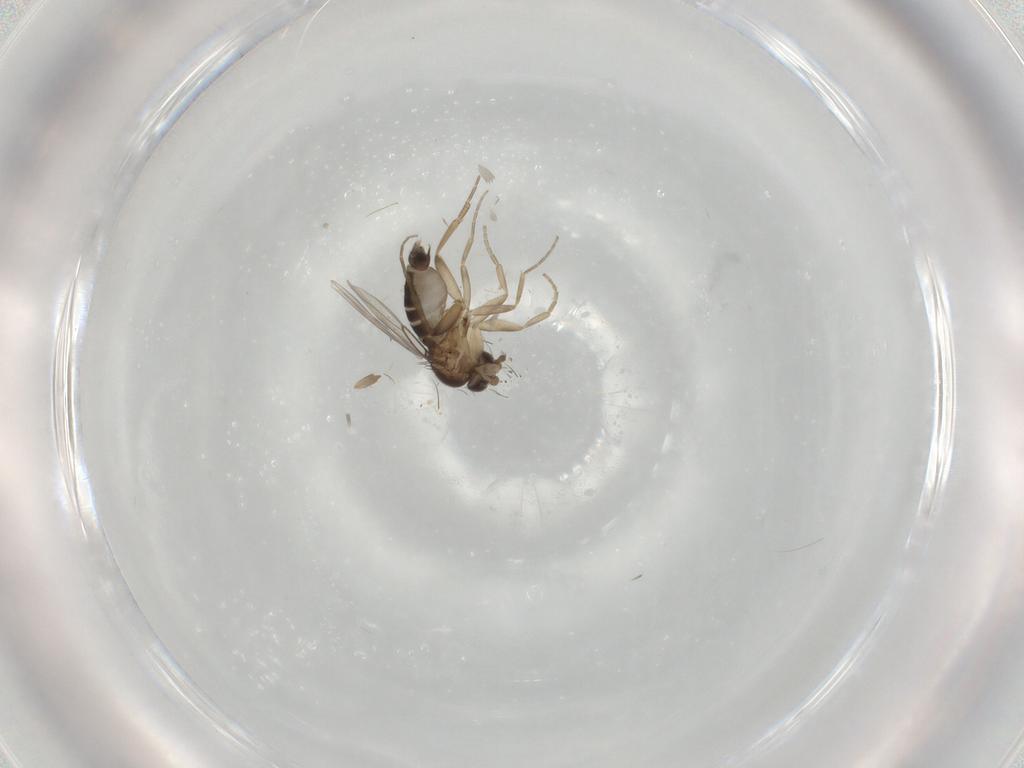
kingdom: Animalia
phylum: Arthropoda
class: Insecta
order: Diptera
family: Phoridae
